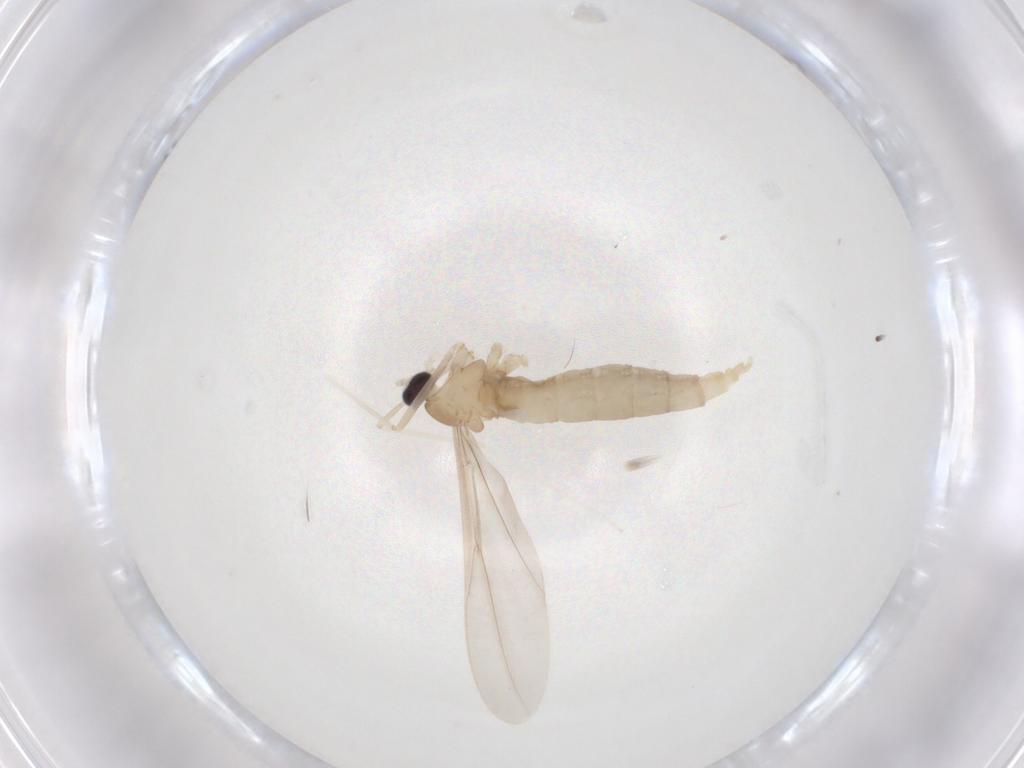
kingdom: Animalia
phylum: Arthropoda
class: Insecta
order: Diptera
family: Cecidomyiidae
